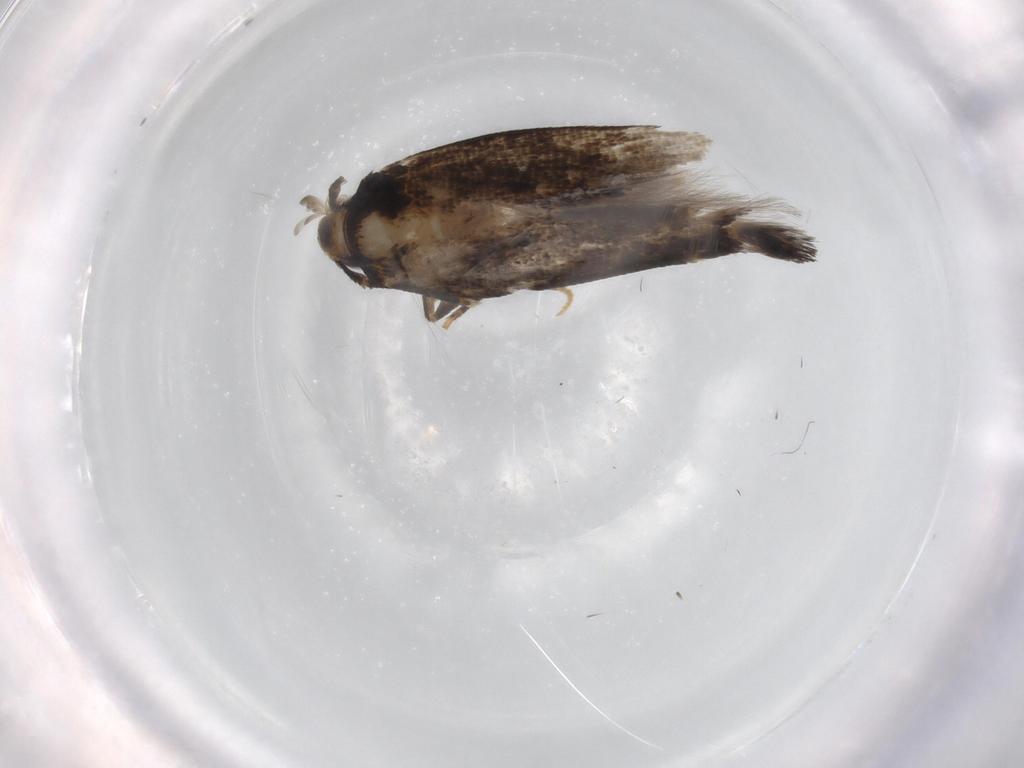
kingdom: Animalia
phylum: Arthropoda
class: Insecta
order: Lepidoptera
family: Cosmopterigidae
